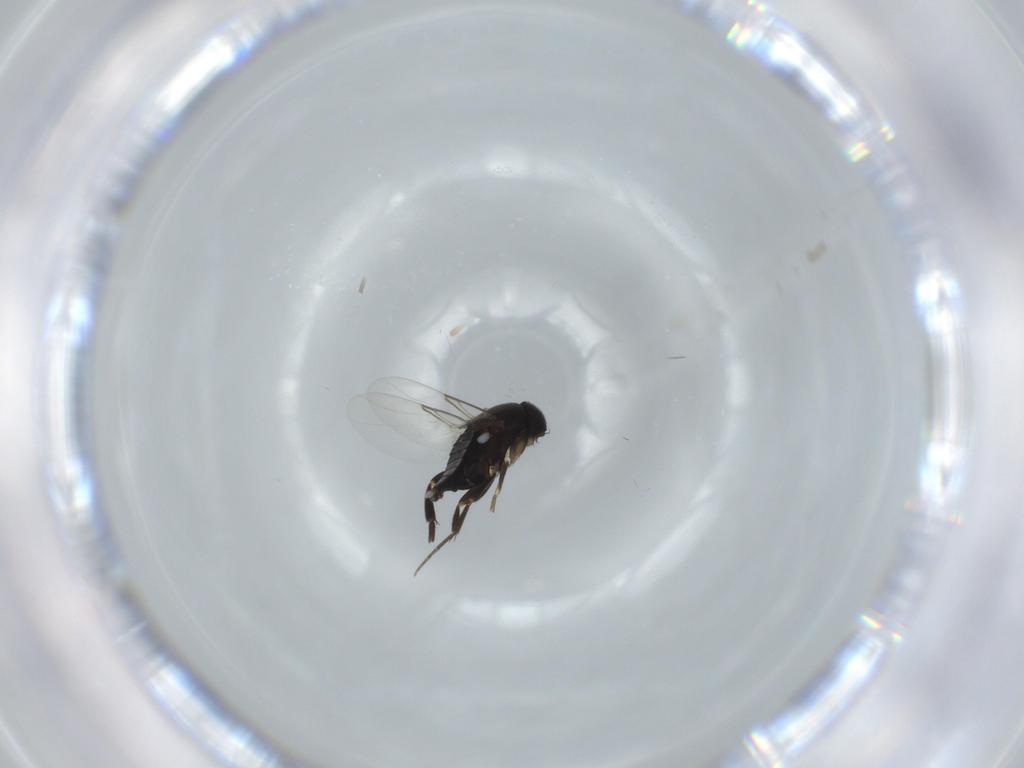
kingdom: Animalia
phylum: Arthropoda
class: Insecta
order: Diptera
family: Phoridae
